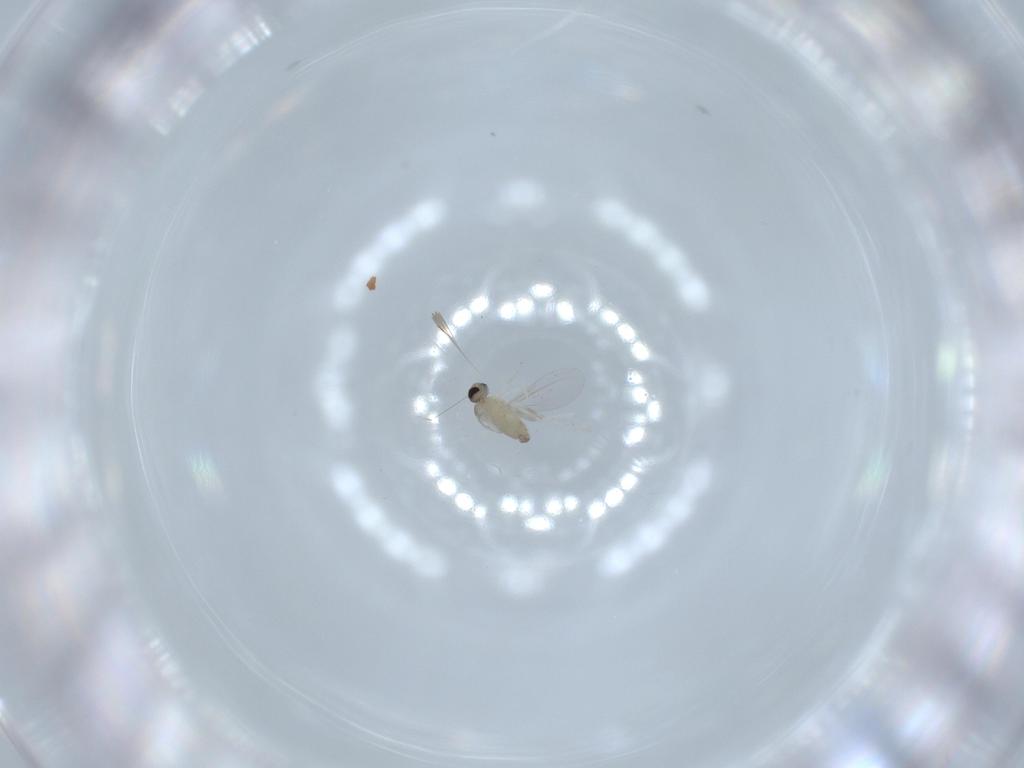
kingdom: Animalia
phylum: Arthropoda
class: Insecta
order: Diptera
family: Cecidomyiidae
